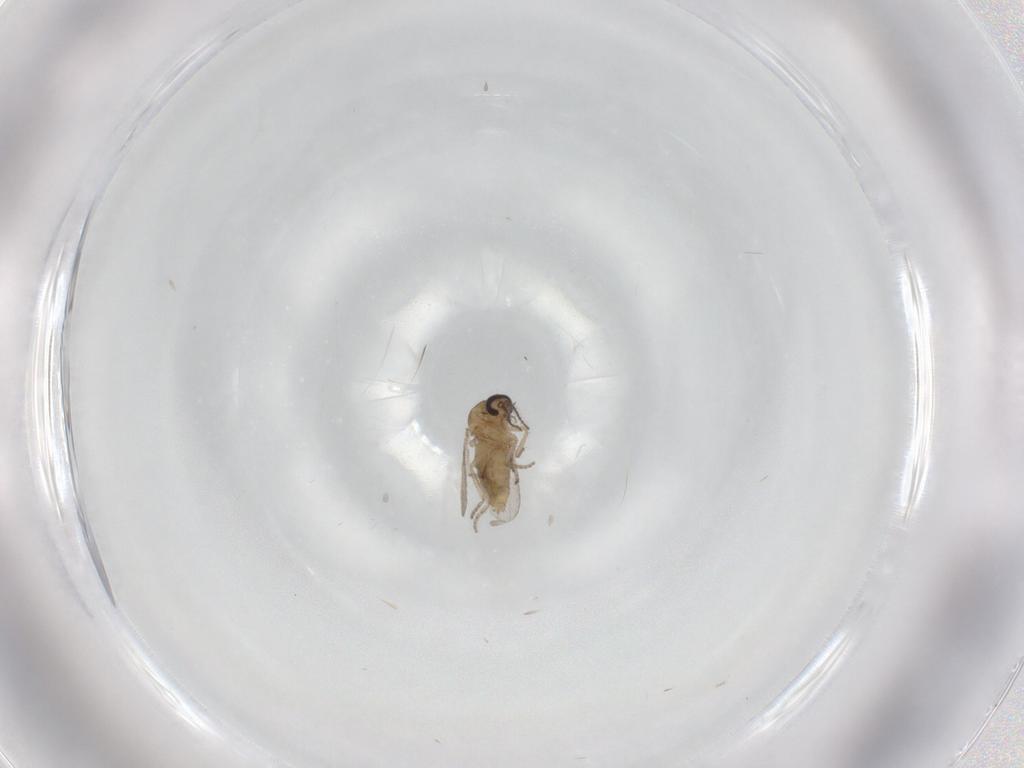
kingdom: Animalia
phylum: Arthropoda
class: Insecta
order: Diptera
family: Ceratopogonidae
